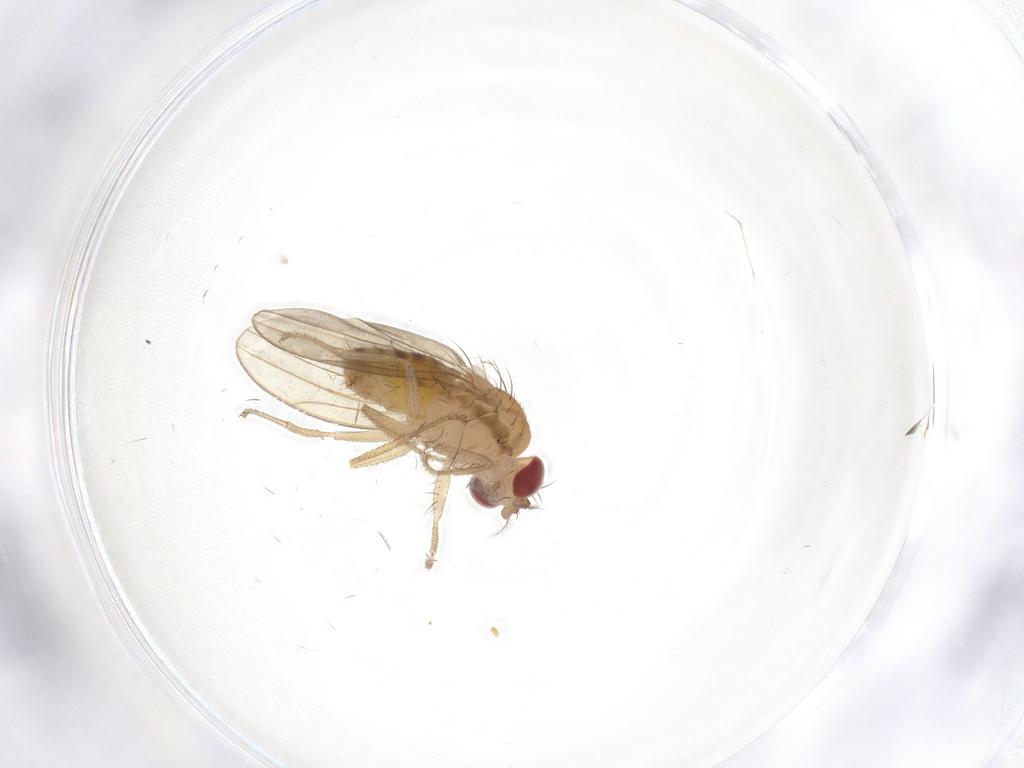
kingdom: Animalia
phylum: Arthropoda
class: Insecta
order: Diptera
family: Drosophilidae
